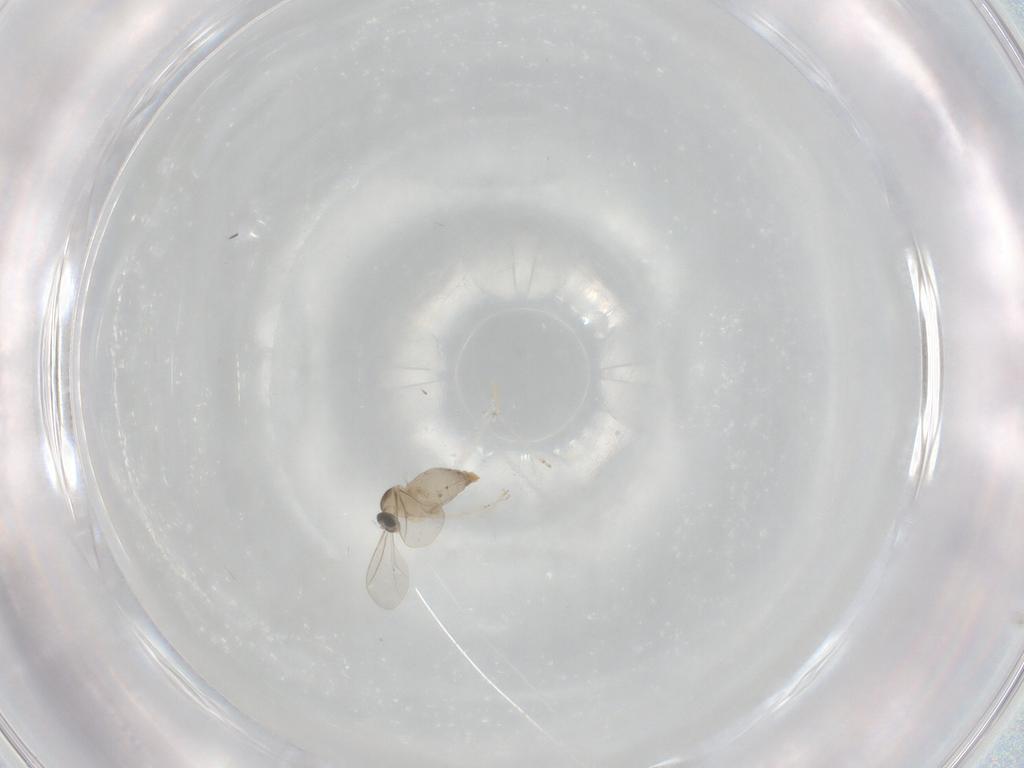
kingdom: Animalia
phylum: Arthropoda
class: Insecta
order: Diptera
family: Cecidomyiidae
